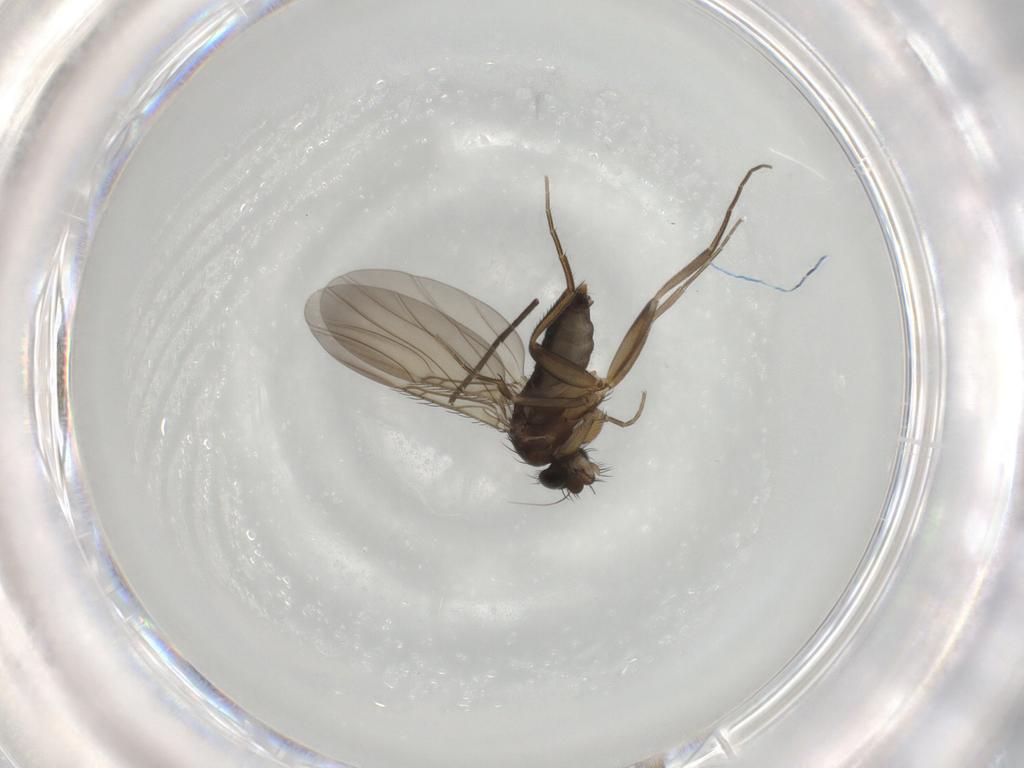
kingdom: Animalia
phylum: Arthropoda
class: Insecta
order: Diptera
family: Phoridae
